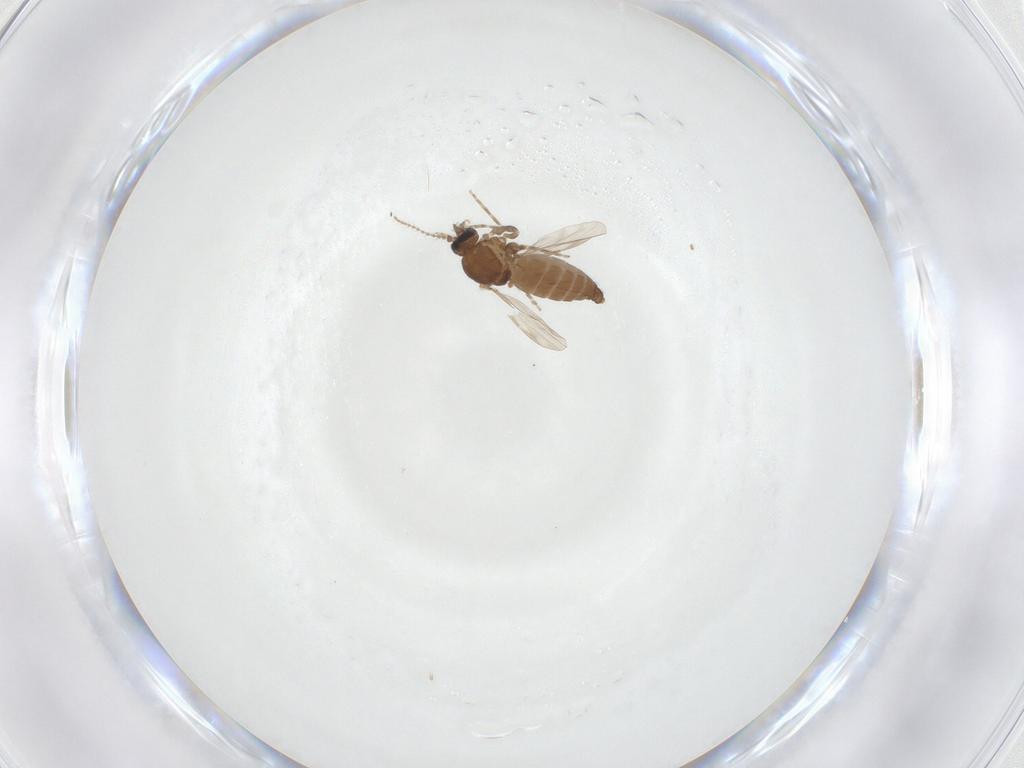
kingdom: Animalia
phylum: Arthropoda
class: Insecta
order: Diptera
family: Ceratopogonidae
